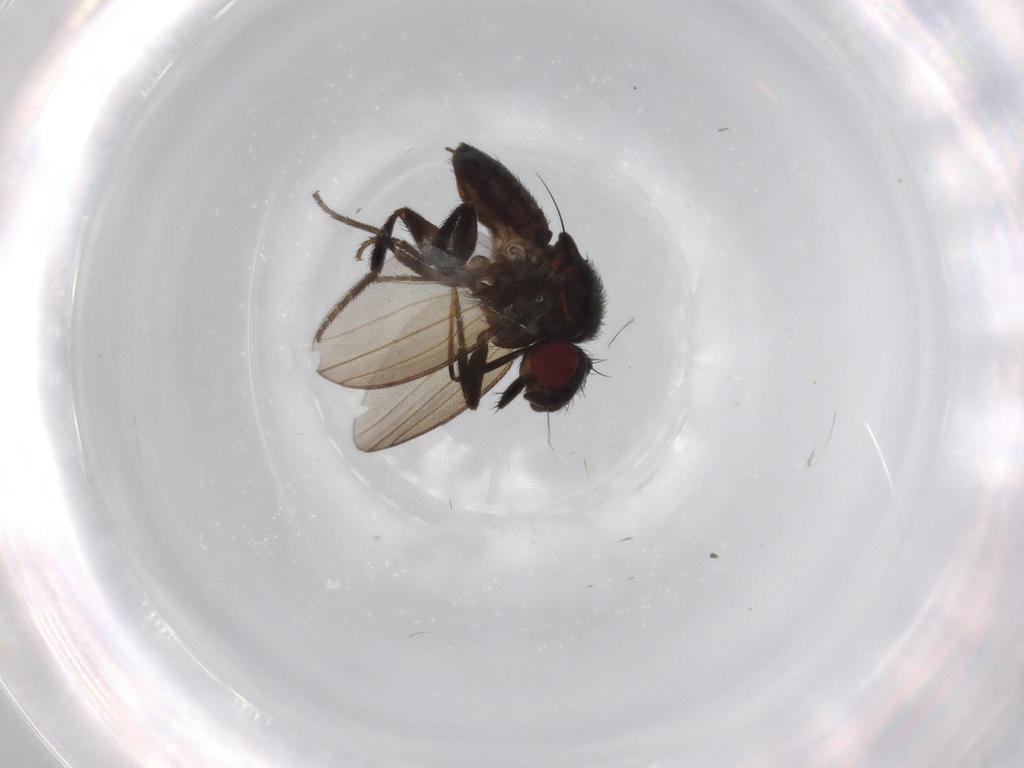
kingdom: Animalia
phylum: Arthropoda
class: Insecta
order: Diptera
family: Milichiidae
